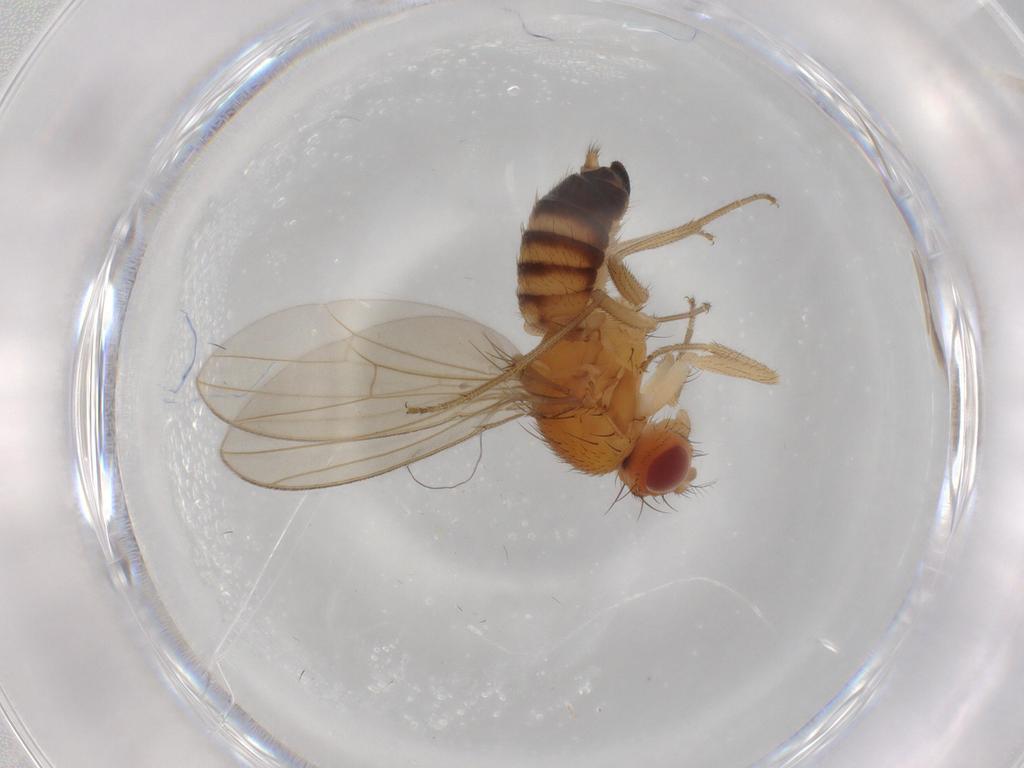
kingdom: Animalia
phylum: Arthropoda
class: Insecta
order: Diptera
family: Drosophilidae
